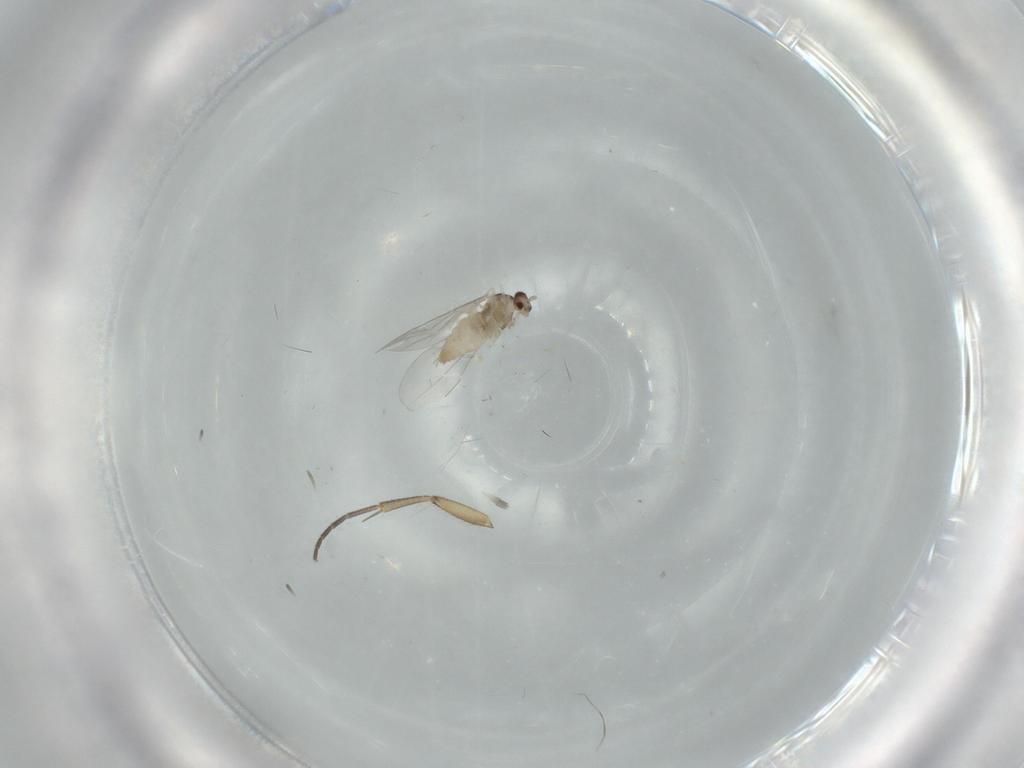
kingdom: Animalia
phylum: Arthropoda
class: Insecta
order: Diptera
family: Cecidomyiidae
